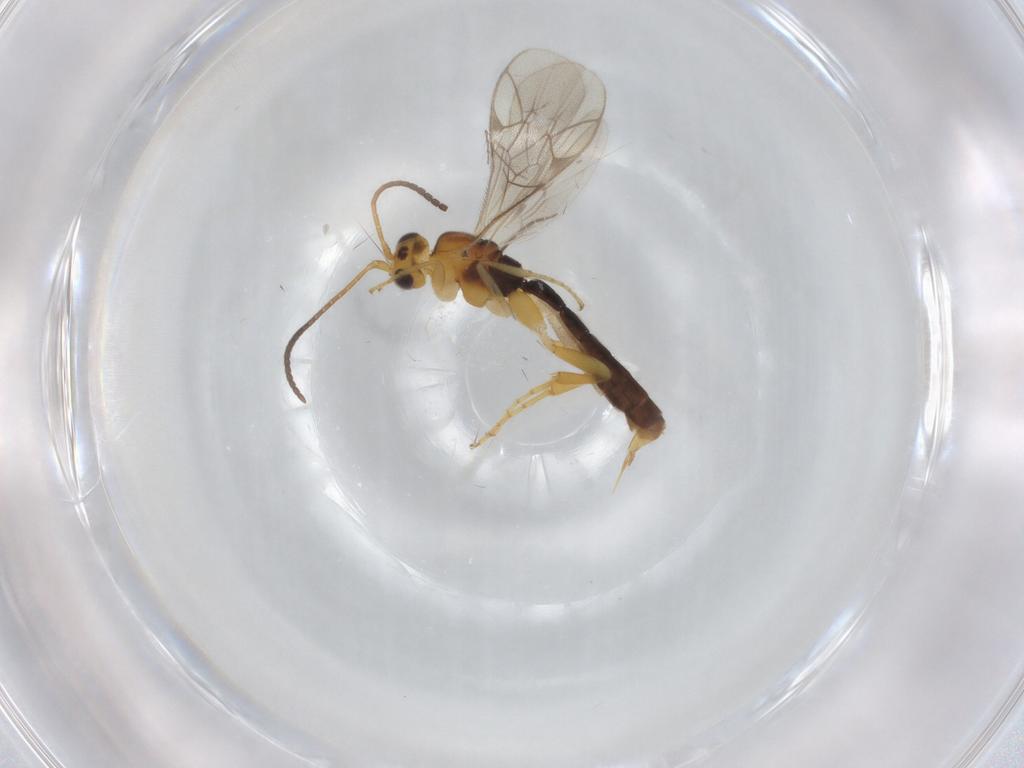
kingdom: Animalia
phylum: Arthropoda
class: Insecta
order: Hymenoptera
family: Ichneumonidae
